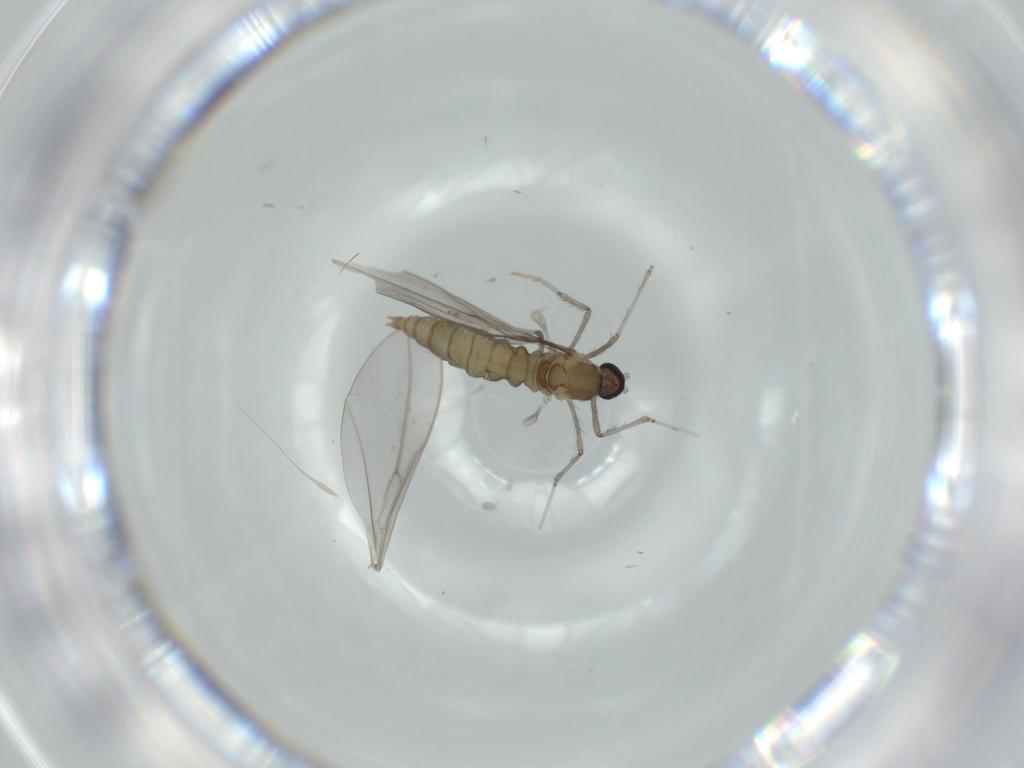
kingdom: Animalia
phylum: Arthropoda
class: Insecta
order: Diptera
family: Cecidomyiidae
